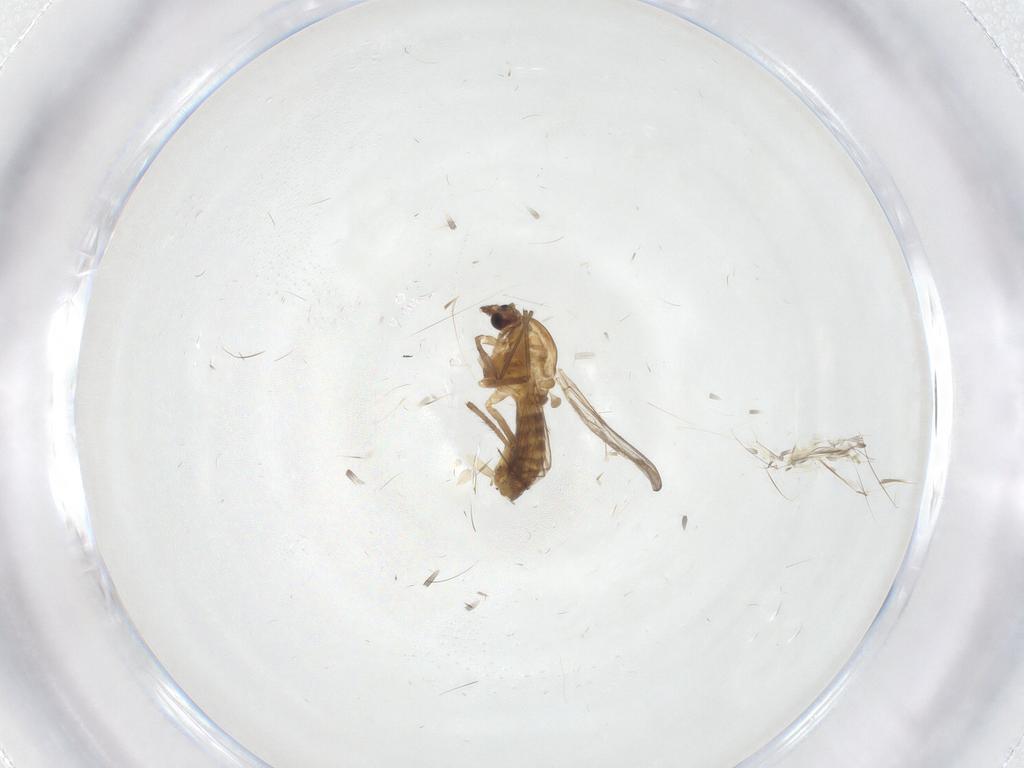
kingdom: Animalia
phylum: Arthropoda
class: Insecta
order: Diptera
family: Chironomidae
